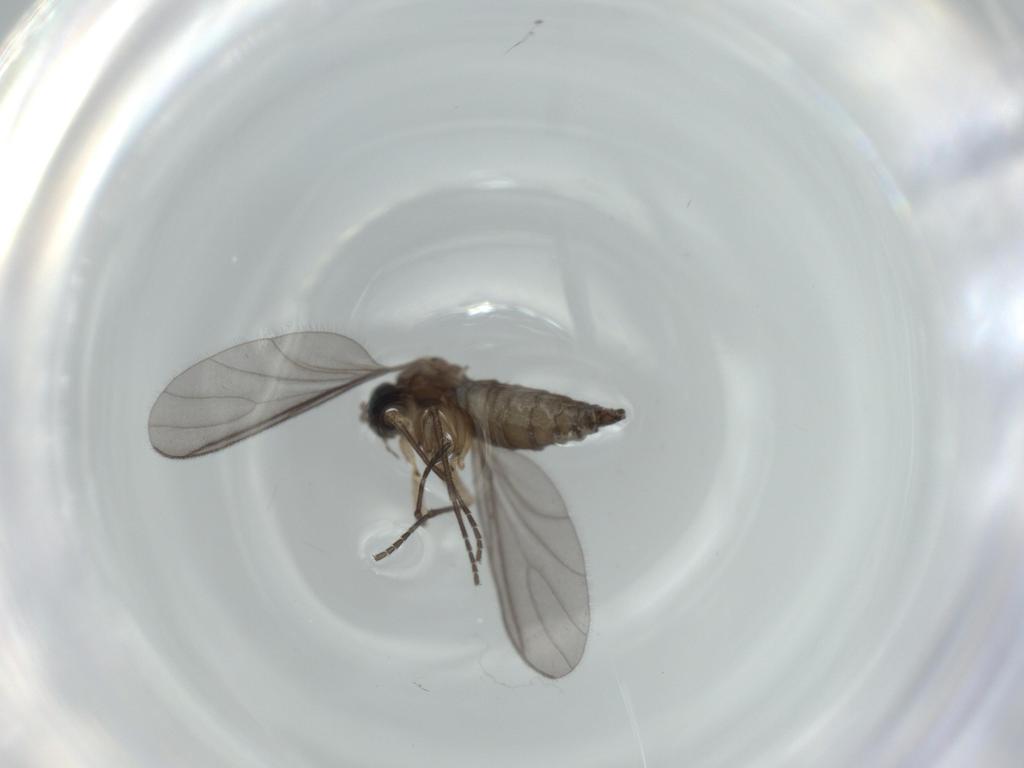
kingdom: Animalia
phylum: Arthropoda
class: Insecta
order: Diptera
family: Sciaridae
